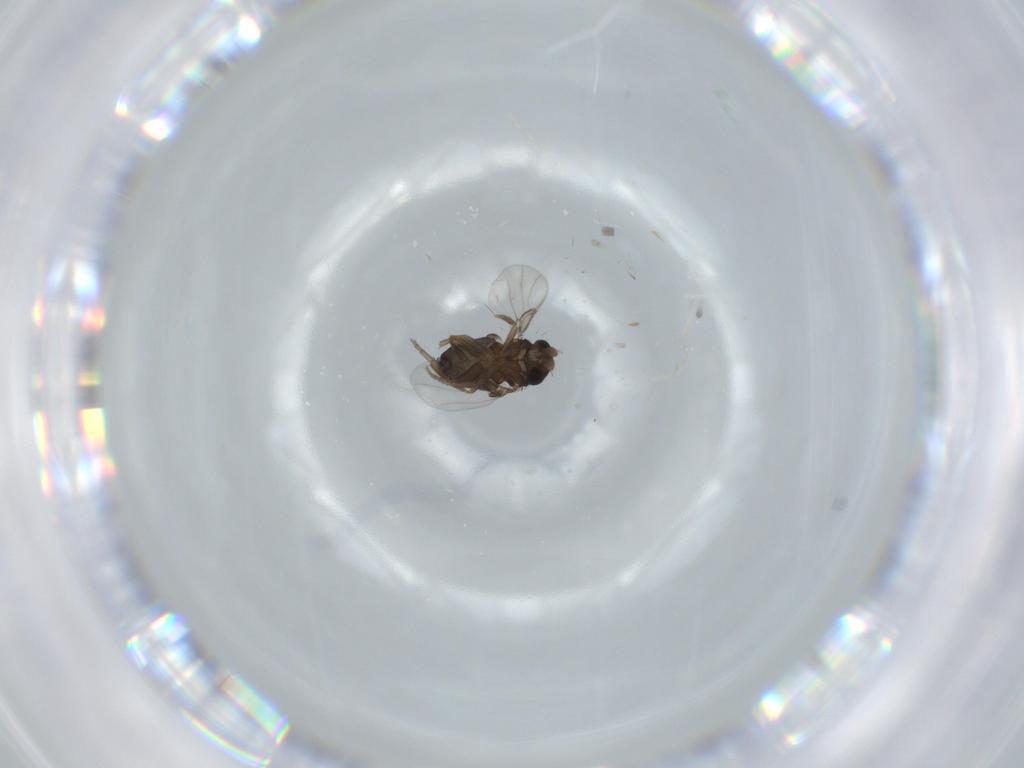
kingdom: Animalia
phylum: Arthropoda
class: Insecta
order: Diptera
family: Phoridae
